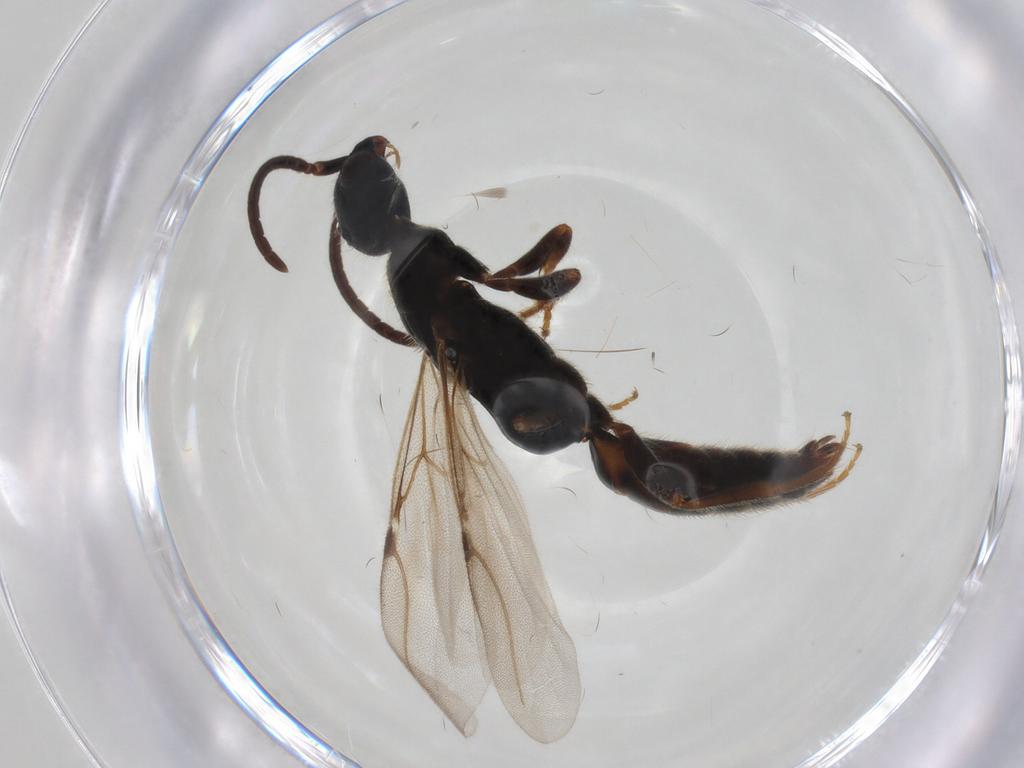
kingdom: Animalia
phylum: Arthropoda
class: Insecta
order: Hymenoptera
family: Bethylidae
